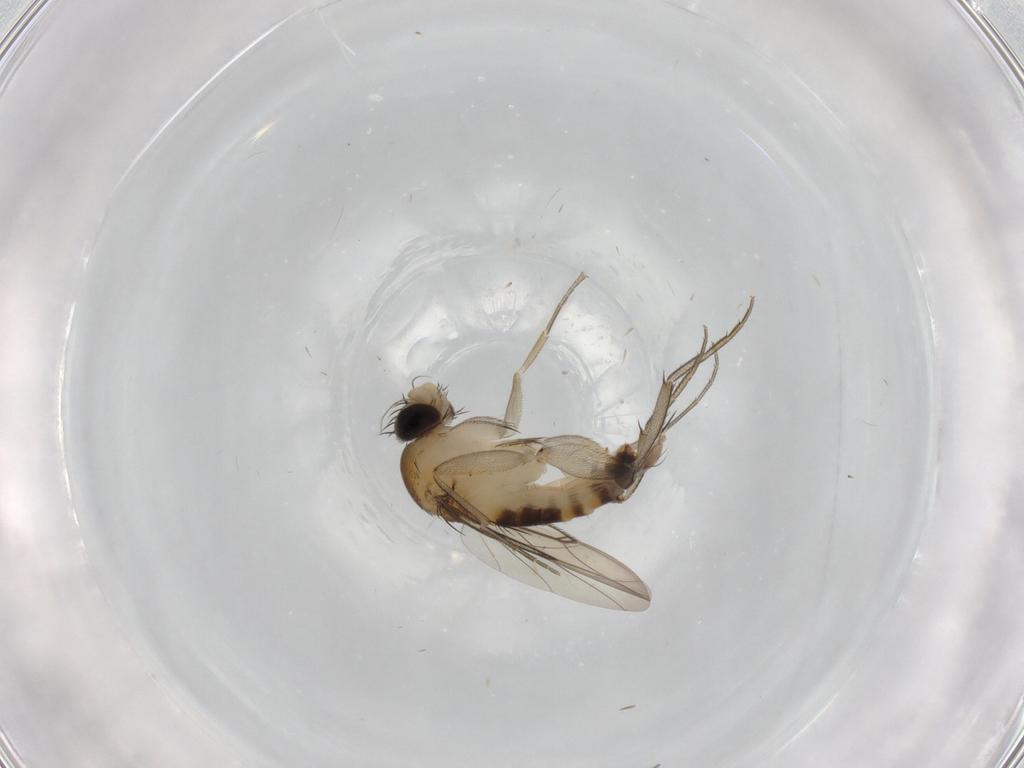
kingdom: Animalia
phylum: Arthropoda
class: Insecta
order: Diptera
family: Phoridae
